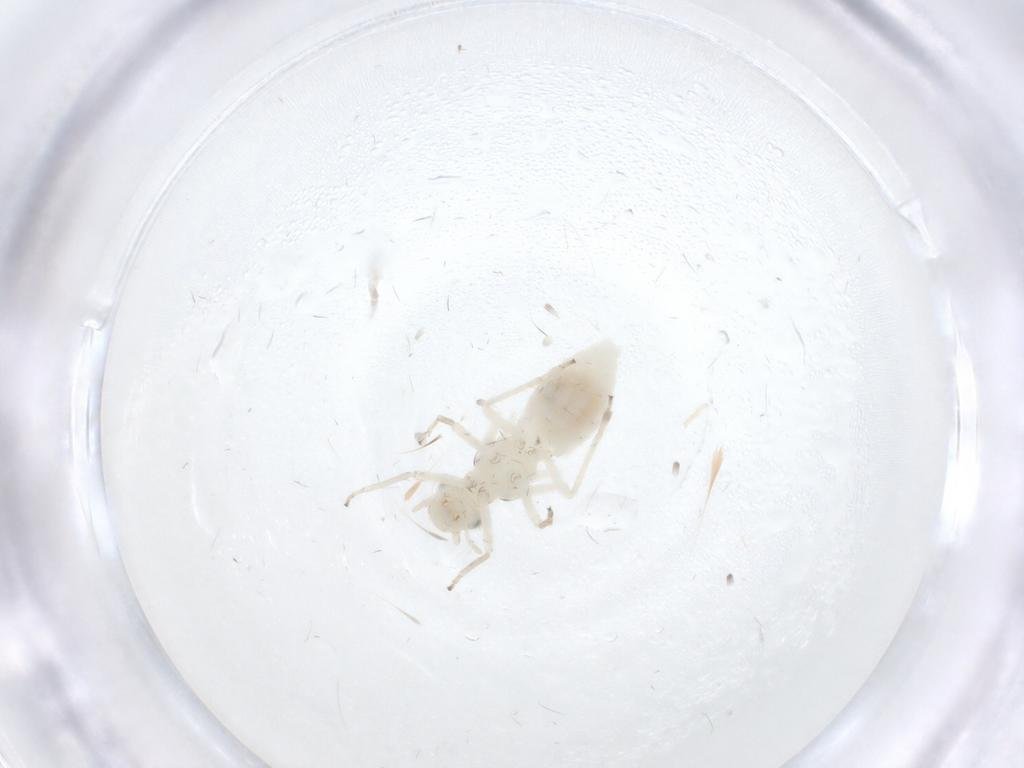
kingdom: Animalia
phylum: Arthropoda
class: Insecta
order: Psocodea
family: Caeciliusidae
